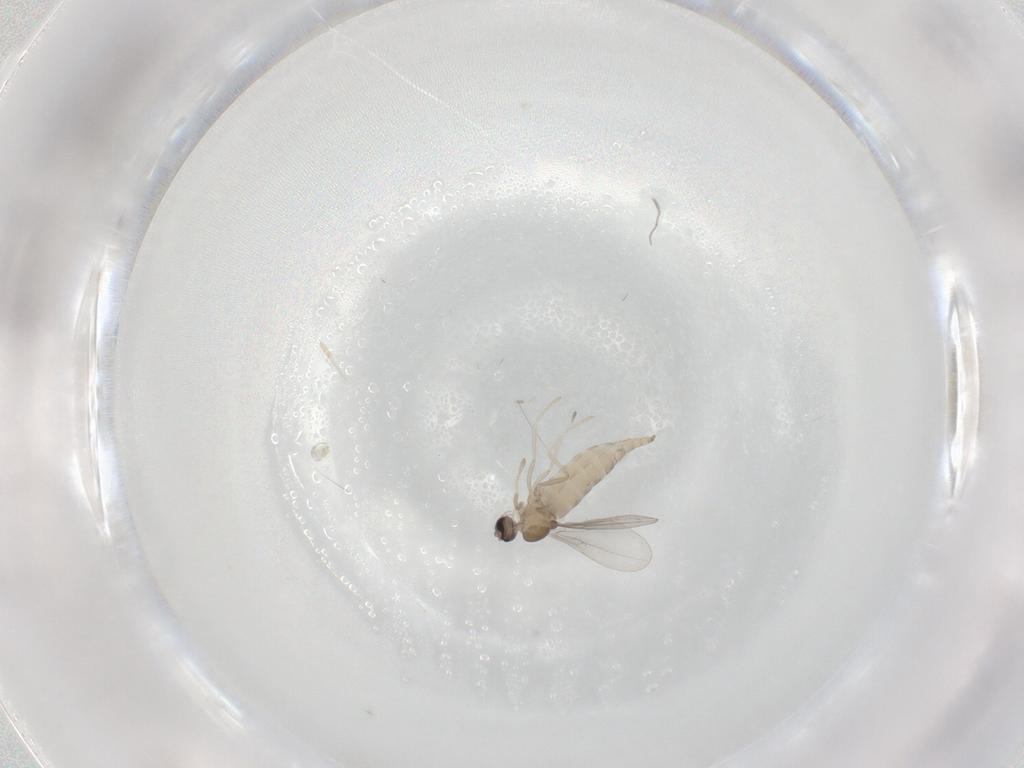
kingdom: Animalia
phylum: Arthropoda
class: Insecta
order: Diptera
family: Cecidomyiidae
